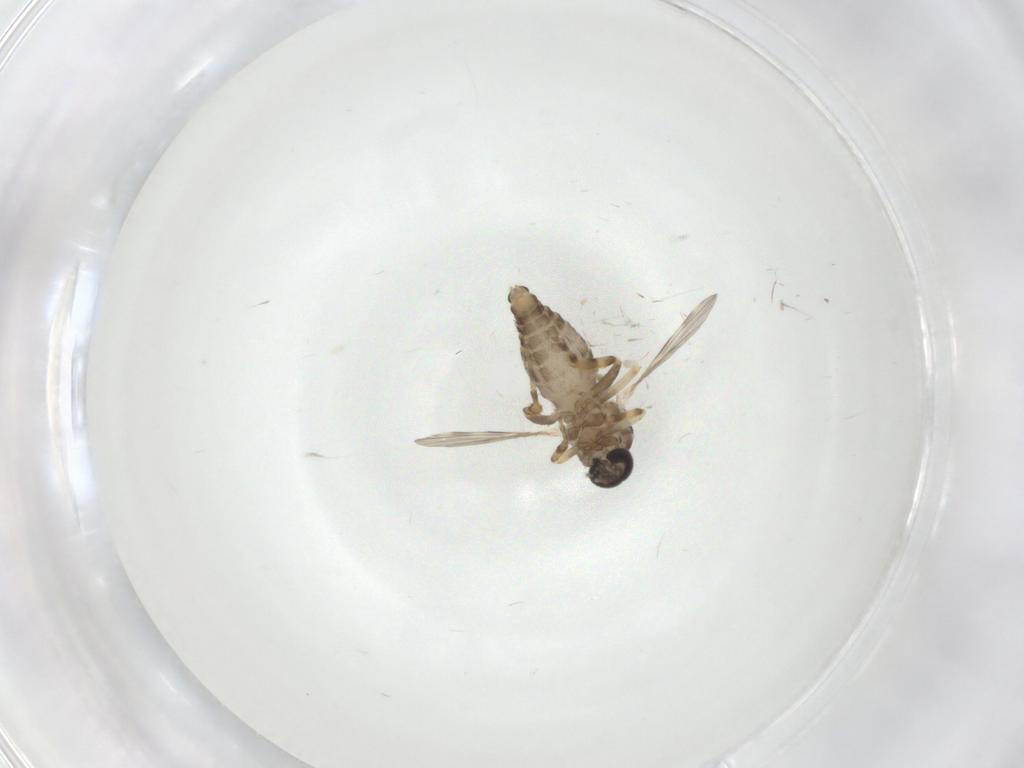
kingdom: Animalia
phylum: Arthropoda
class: Insecta
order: Diptera
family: Ceratopogonidae
